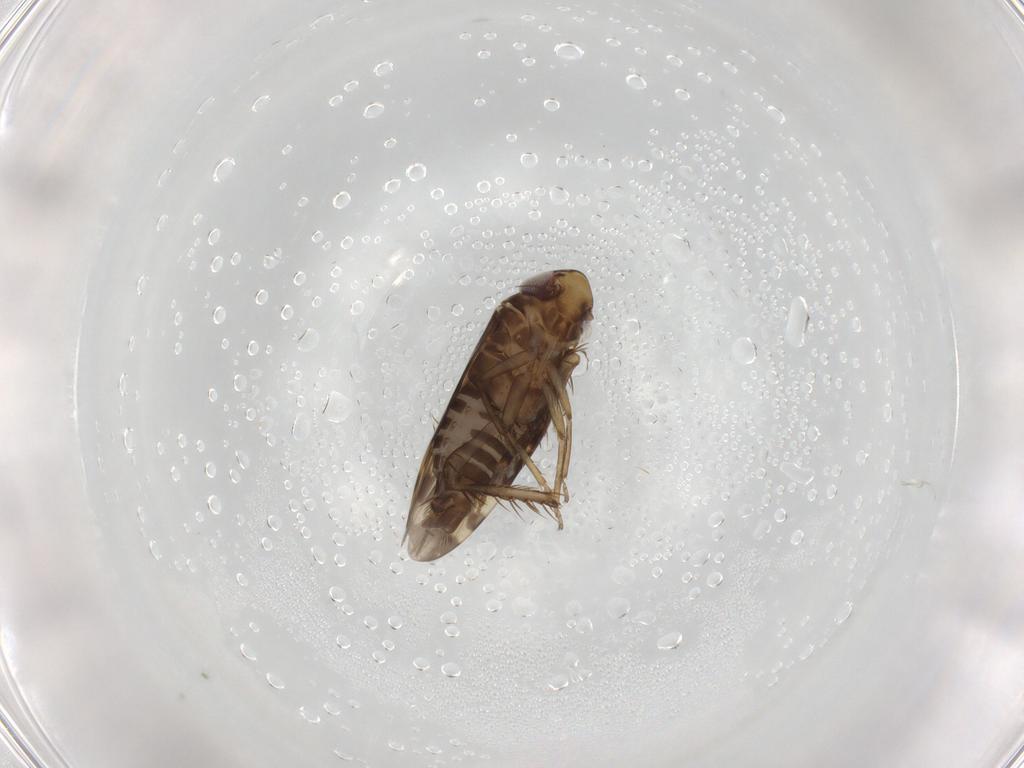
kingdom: Animalia
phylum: Arthropoda
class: Insecta
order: Hemiptera
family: Cicadellidae
